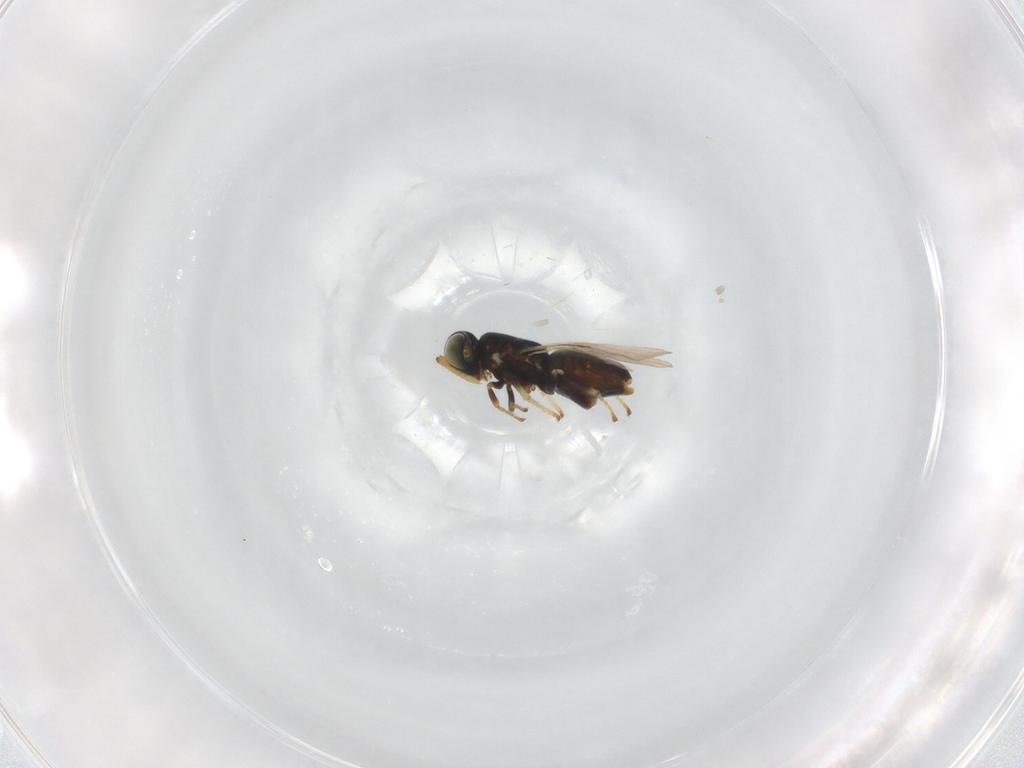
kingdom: Animalia
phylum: Arthropoda
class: Insecta
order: Hymenoptera
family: Vespidae
